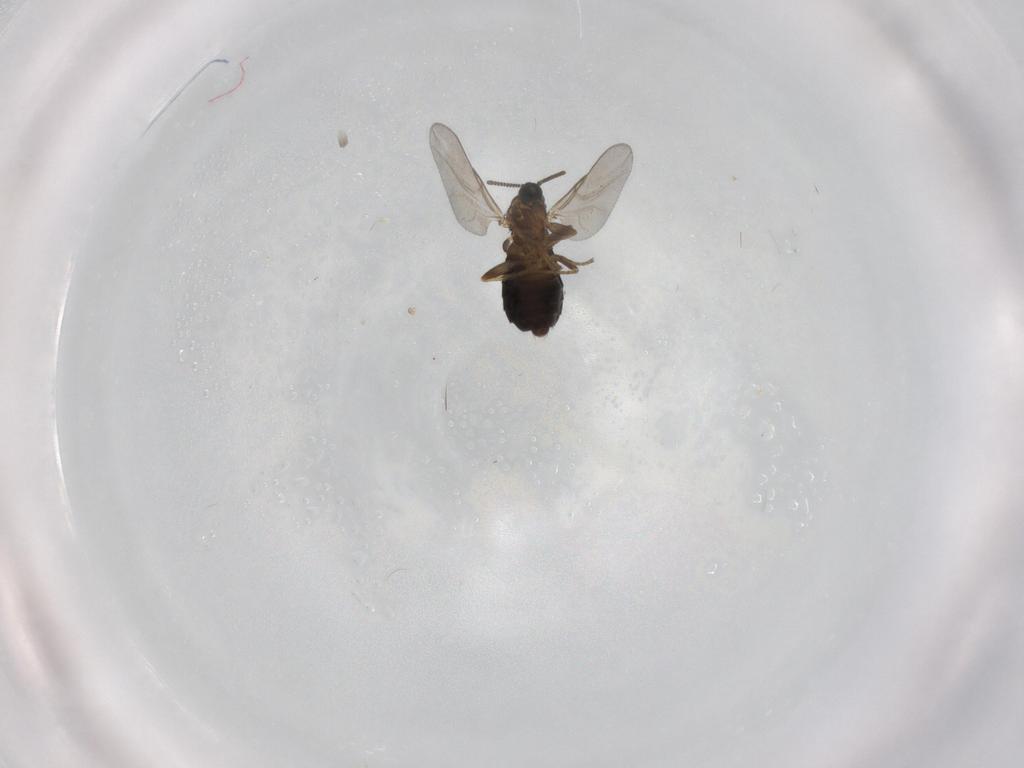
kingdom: Animalia
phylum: Arthropoda
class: Insecta
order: Diptera
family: Scatopsidae
